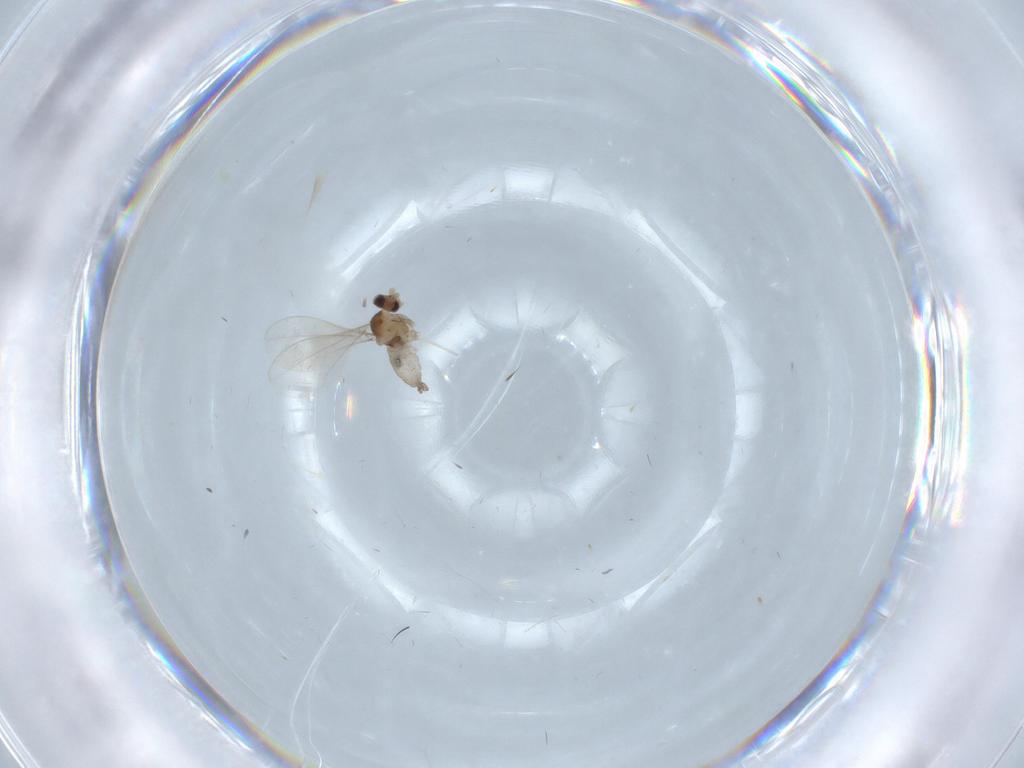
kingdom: Animalia
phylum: Arthropoda
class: Insecta
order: Diptera
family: Cecidomyiidae
